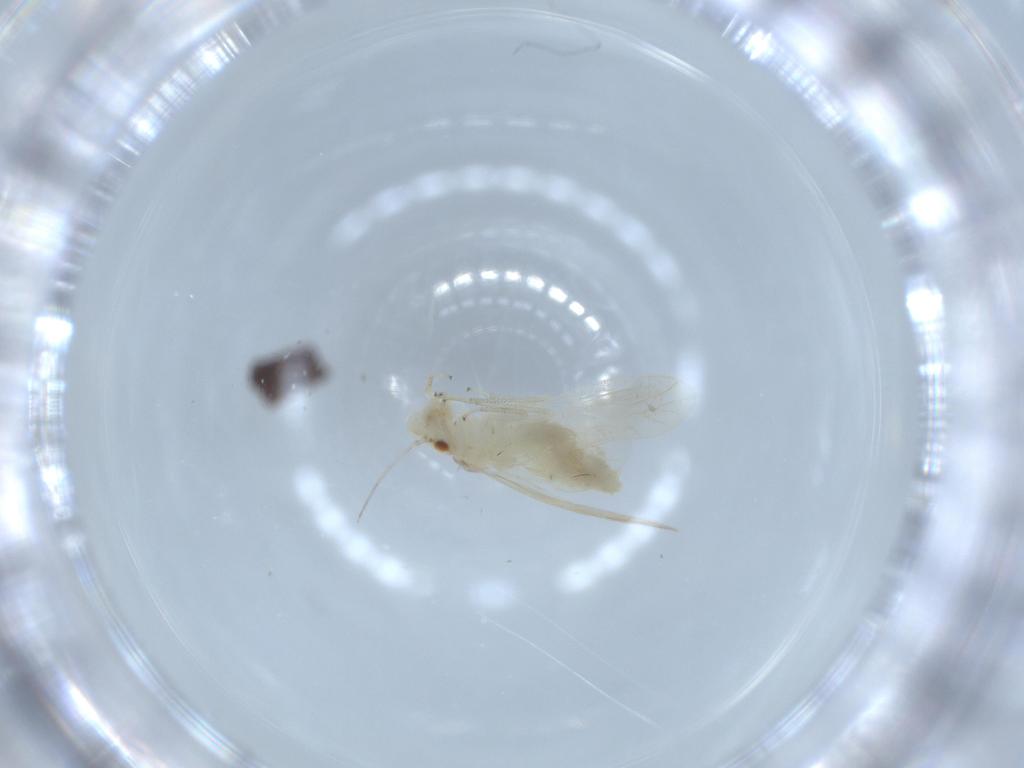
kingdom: Animalia
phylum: Arthropoda
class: Insecta
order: Psocodea
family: Caeciliusidae
